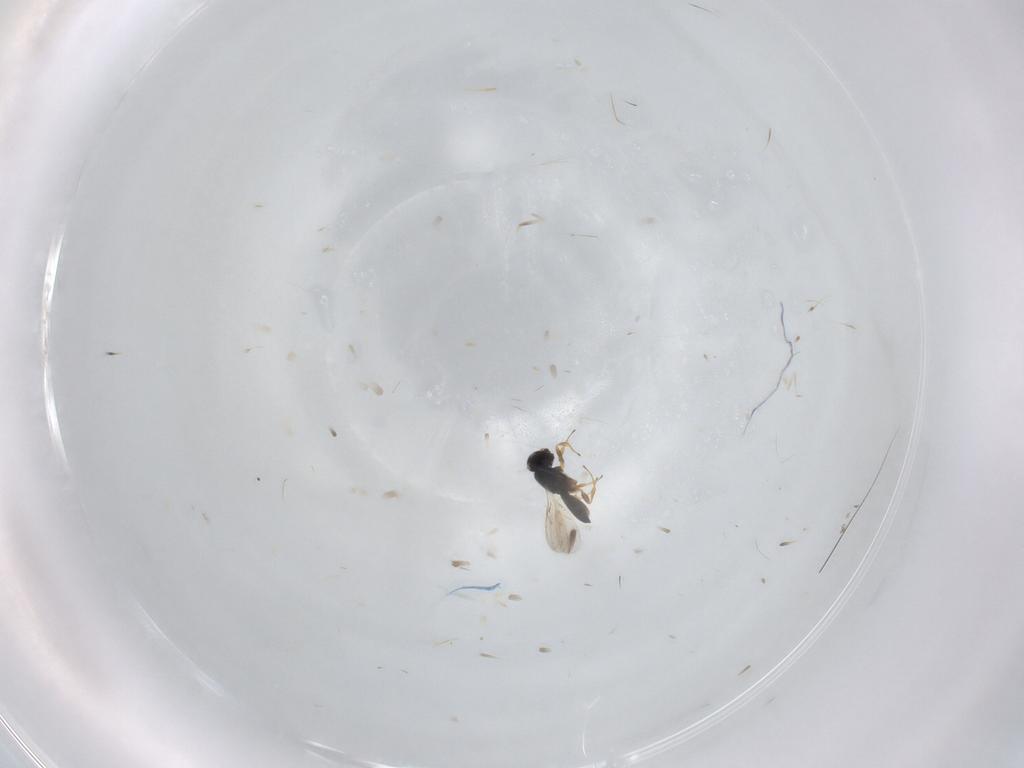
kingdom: Animalia
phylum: Arthropoda
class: Insecta
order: Hymenoptera
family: Scelionidae
